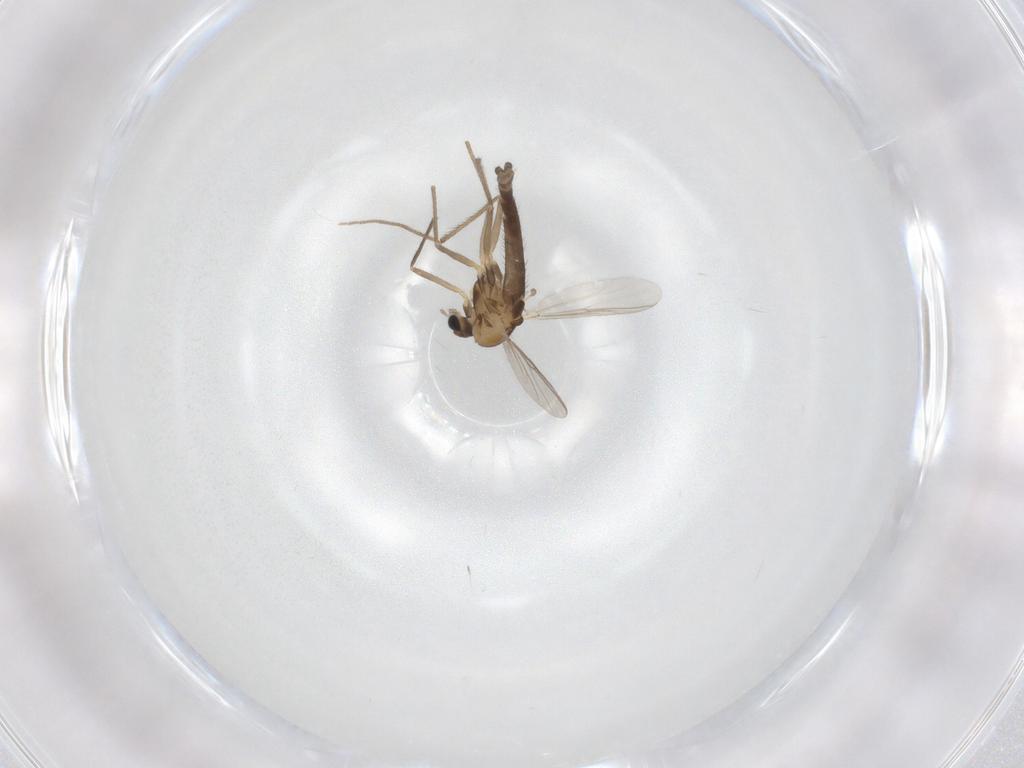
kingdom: Animalia
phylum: Arthropoda
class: Insecta
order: Diptera
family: Chironomidae
